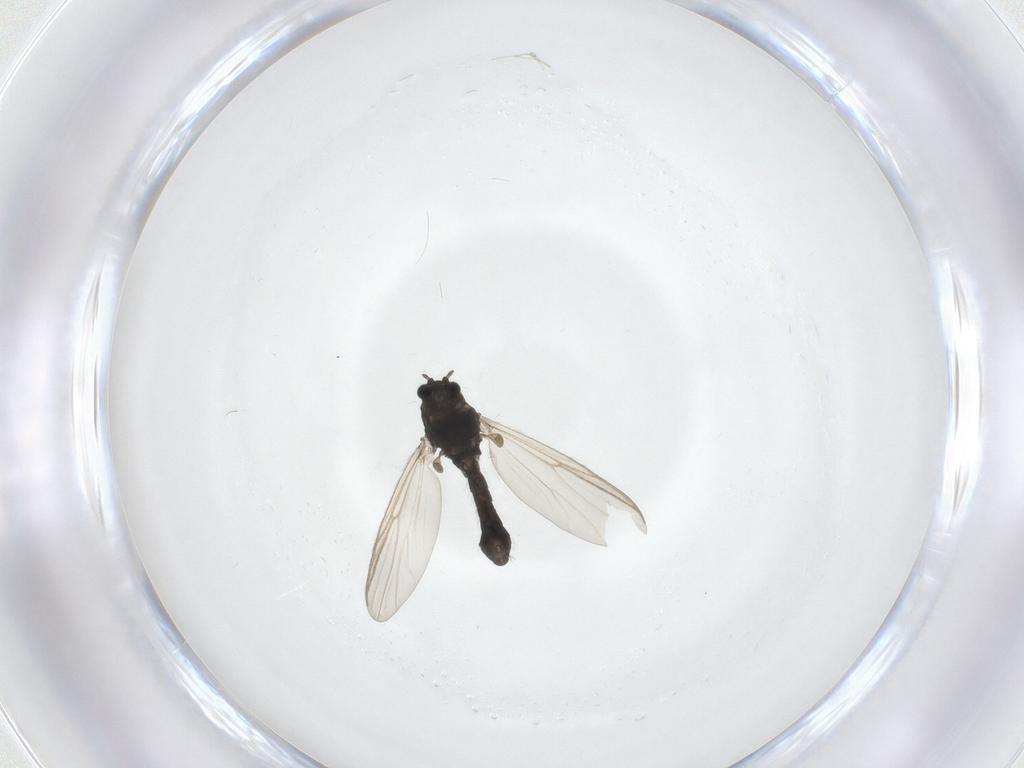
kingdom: Animalia
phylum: Arthropoda
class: Insecta
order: Diptera
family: Chironomidae
